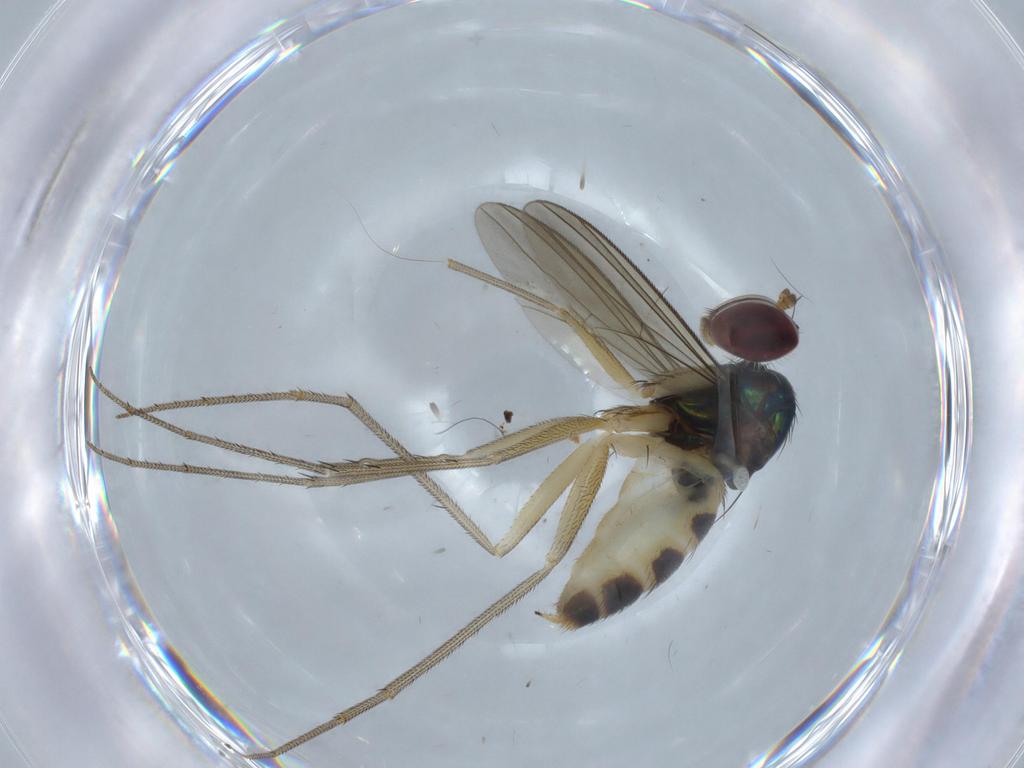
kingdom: Animalia
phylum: Arthropoda
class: Insecta
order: Diptera
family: Dolichopodidae
